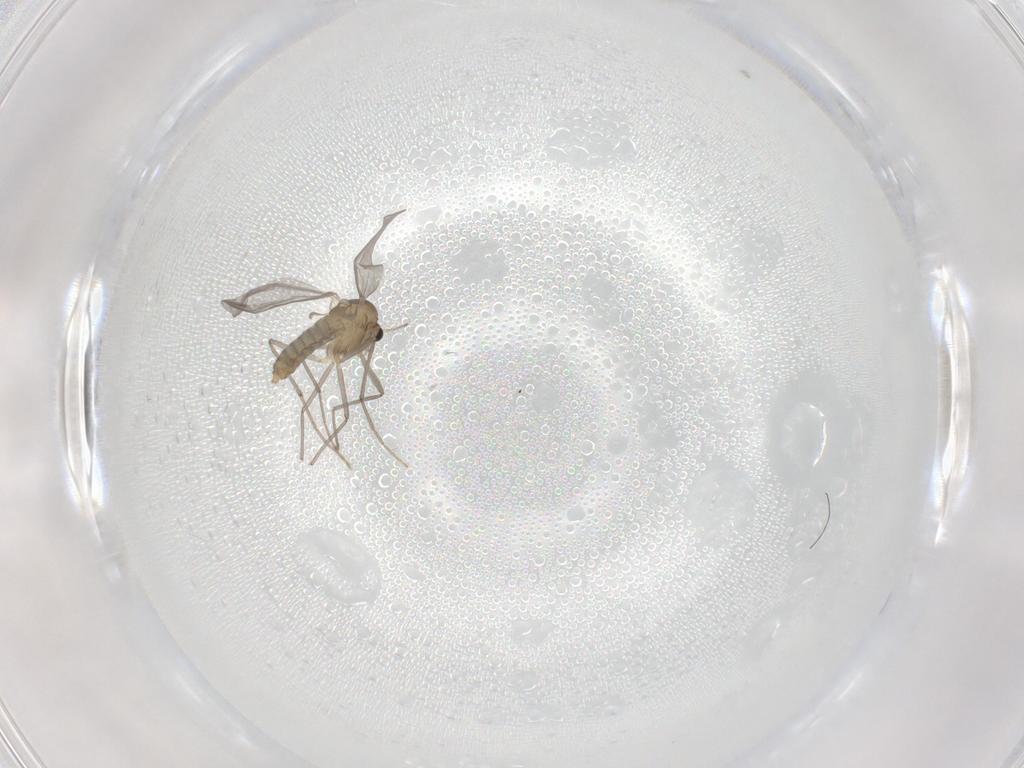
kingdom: Animalia
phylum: Arthropoda
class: Insecta
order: Diptera
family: Chironomidae
